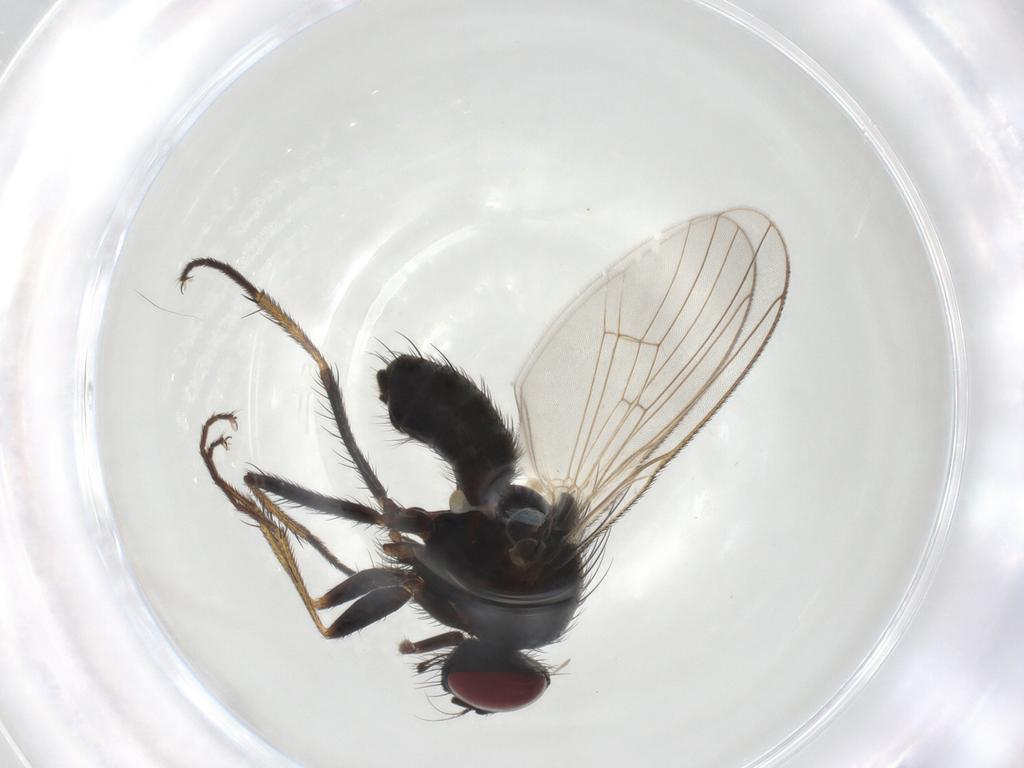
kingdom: Animalia
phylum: Arthropoda
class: Insecta
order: Diptera
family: Muscidae
